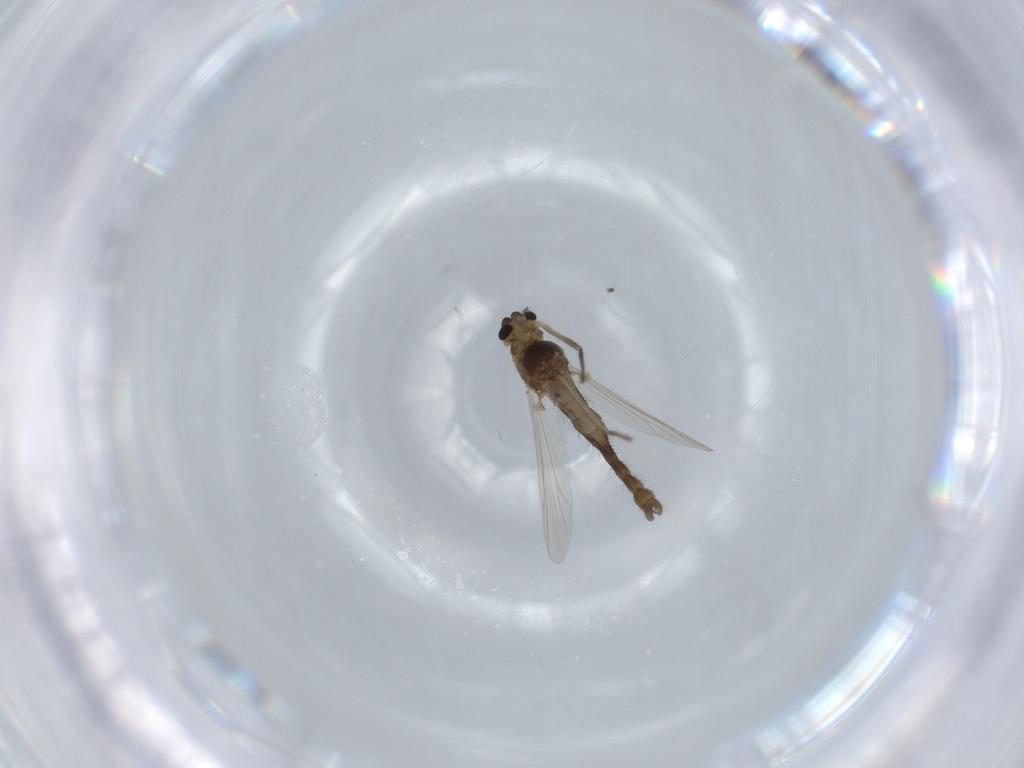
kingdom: Animalia
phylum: Arthropoda
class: Insecta
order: Diptera
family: Chironomidae
